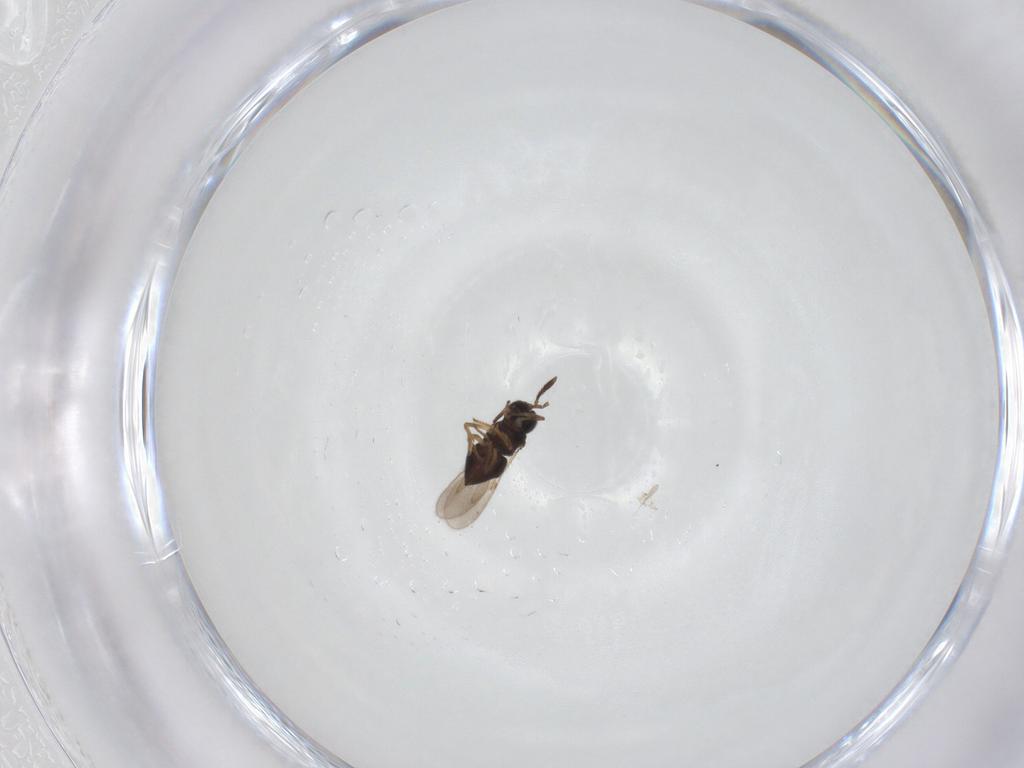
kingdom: Animalia
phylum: Arthropoda
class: Insecta
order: Hymenoptera
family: Encyrtidae
